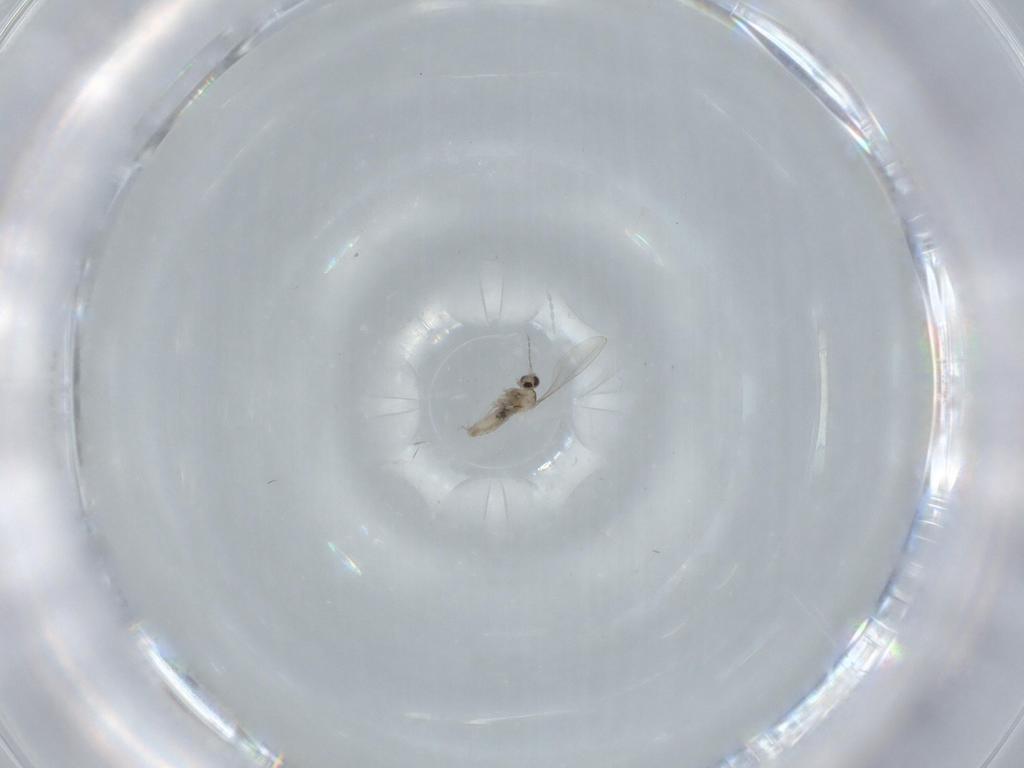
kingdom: Animalia
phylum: Arthropoda
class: Insecta
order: Diptera
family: Cecidomyiidae
